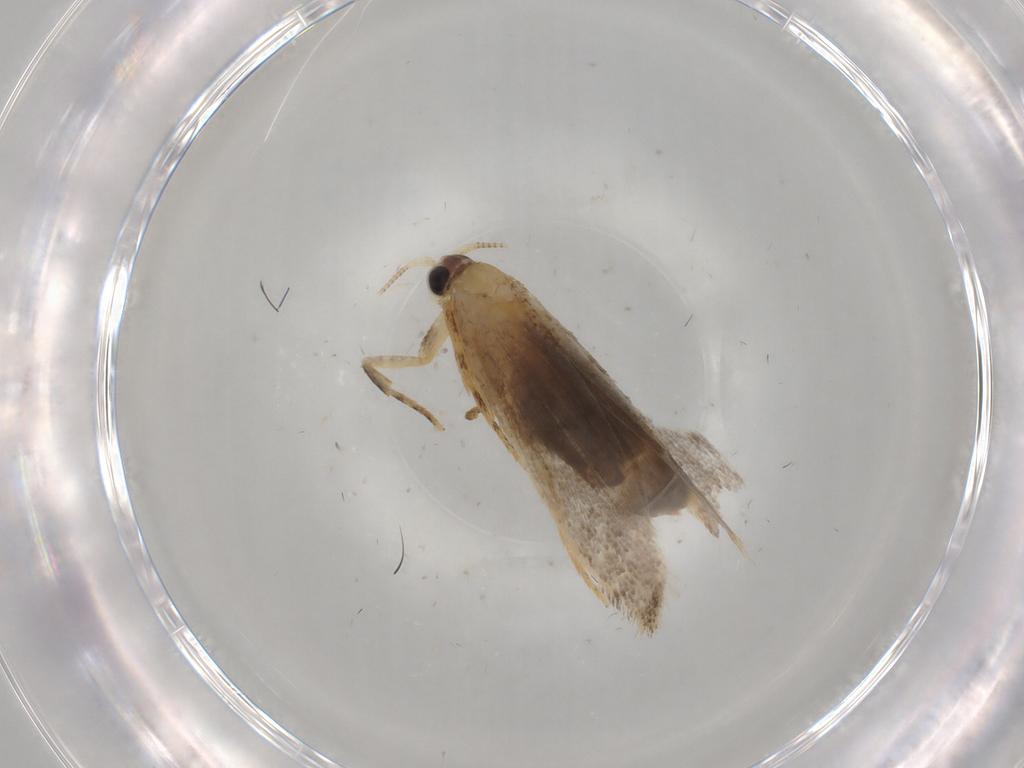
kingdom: Animalia
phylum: Arthropoda
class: Insecta
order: Lepidoptera
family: Nepticulidae
